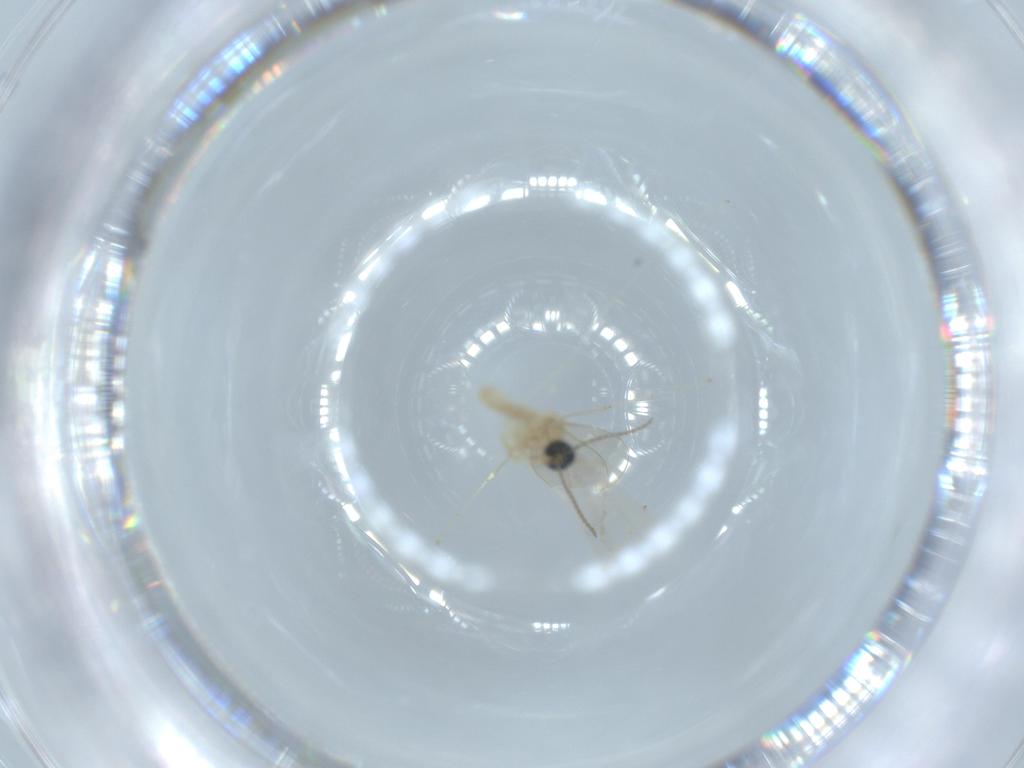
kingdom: Animalia
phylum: Arthropoda
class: Insecta
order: Diptera
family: Cecidomyiidae
